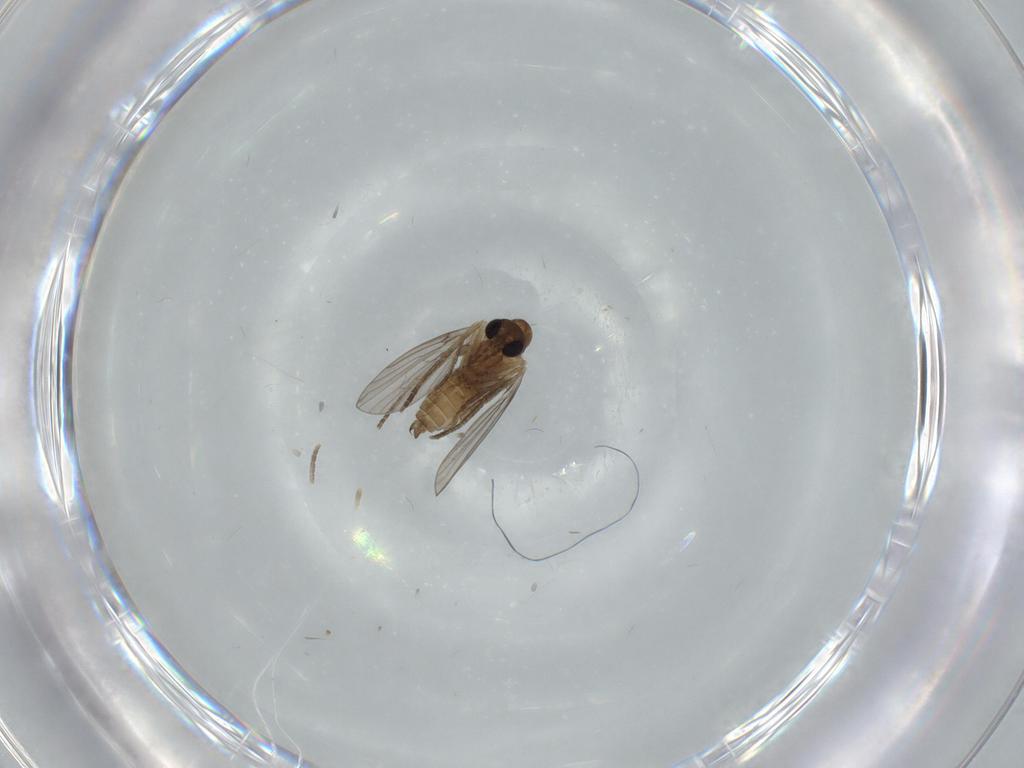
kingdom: Animalia
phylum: Arthropoda
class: Insecta
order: Diptera
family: Psychodidae
